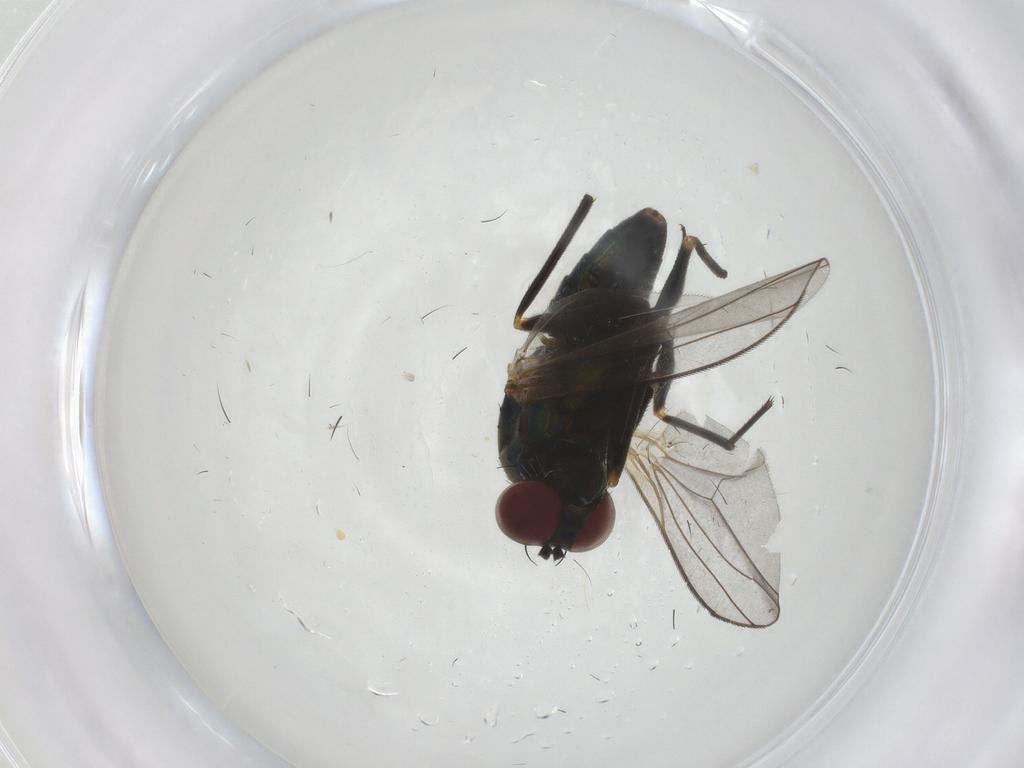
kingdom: Animalia
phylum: Arthropoda
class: Insecta
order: Diptera
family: Dolichopodidae
